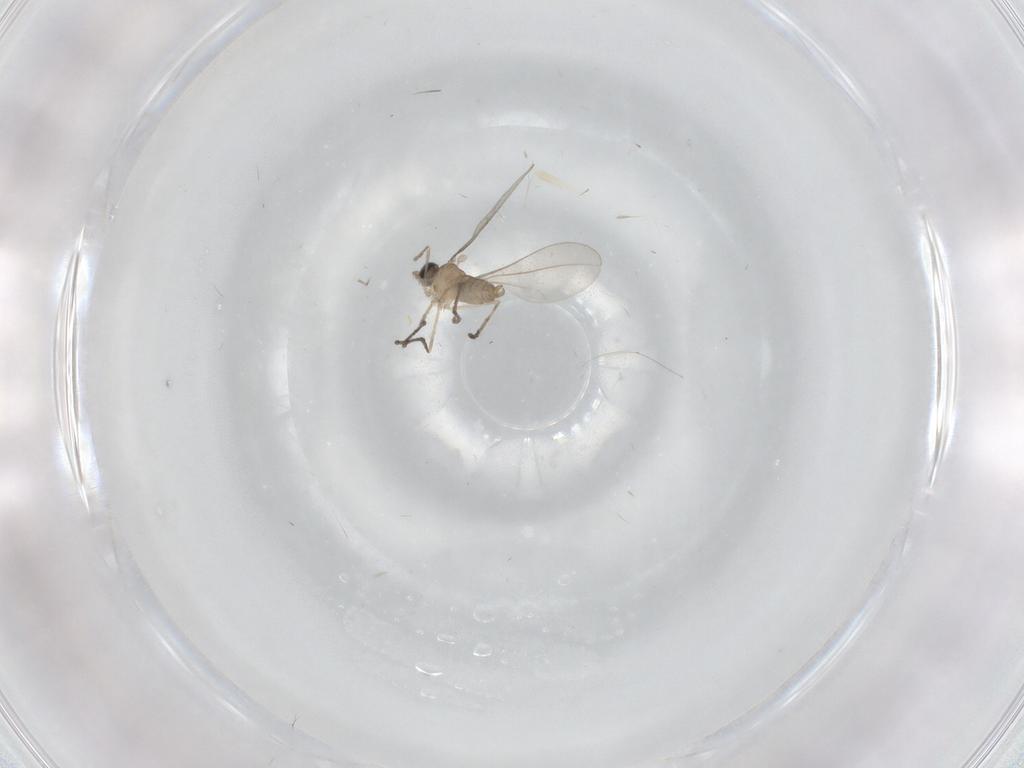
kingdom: Animalia
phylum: Arthropoda
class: Insecta
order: Diptera
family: Cecidomyiidae
